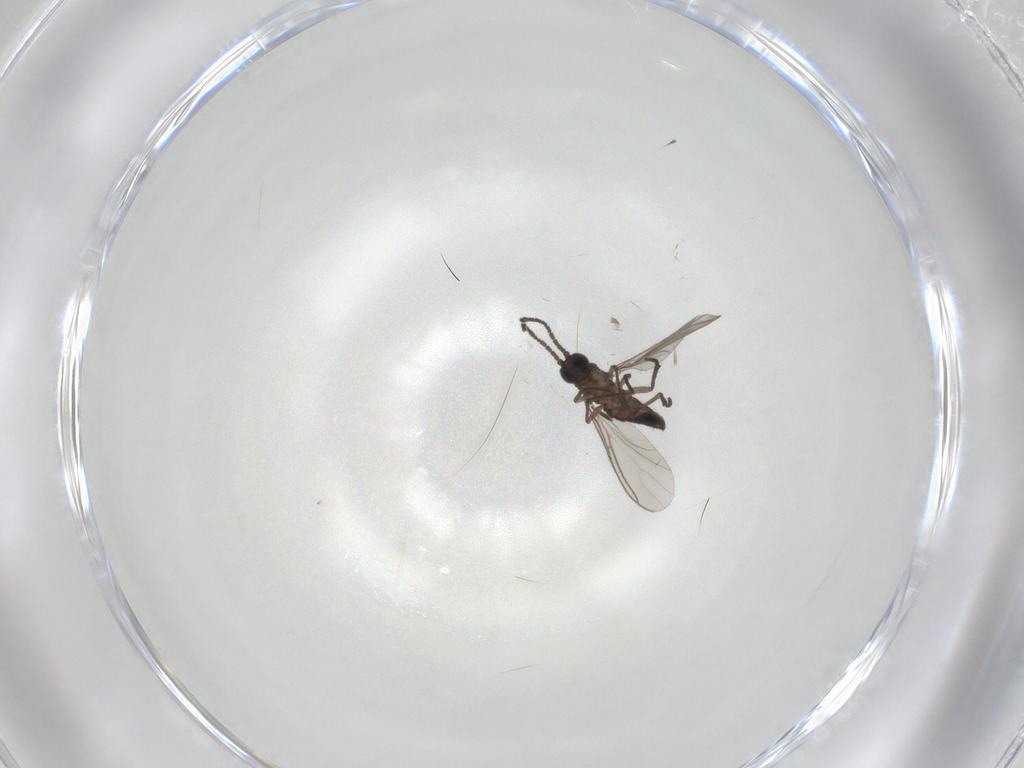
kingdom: Animalia
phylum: Arthropoda
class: Insecta
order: Diptera
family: Sciaridae
